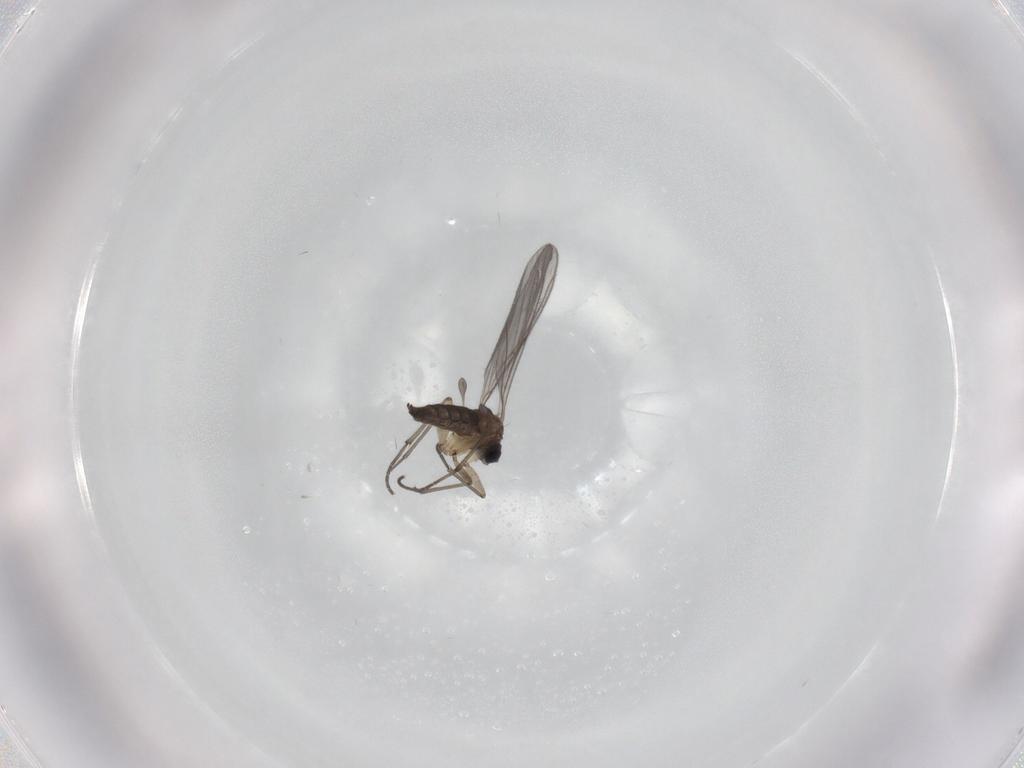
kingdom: Animalia
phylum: Arthropoda
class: Insecta
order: Diptera
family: Sciaridae
